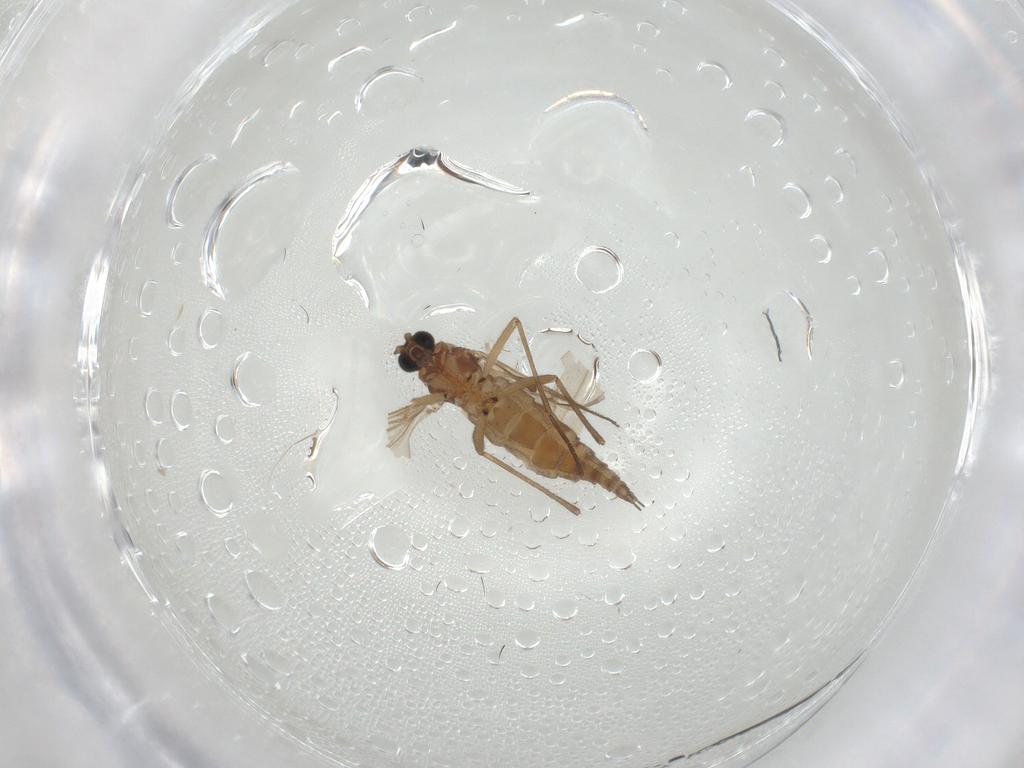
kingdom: Animalia
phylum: Arthropoda
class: Insecta
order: Diptera
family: Sciaridae
